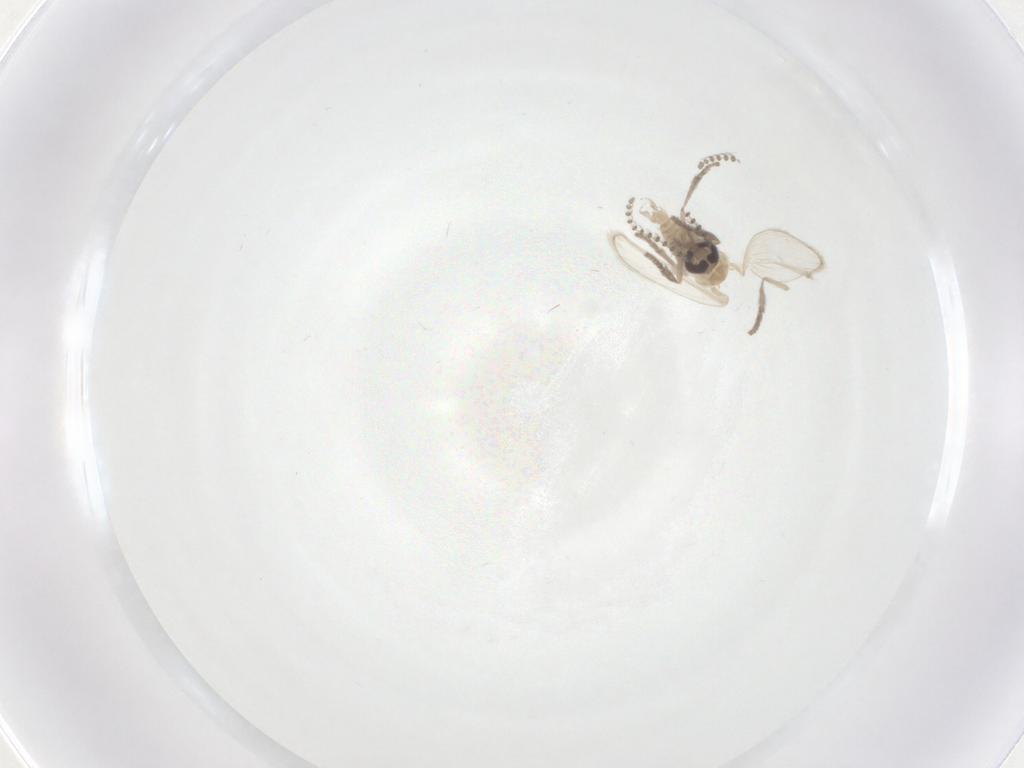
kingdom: Animalia
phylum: Arthropoda
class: Insecta
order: Diptera
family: Psychodidae
